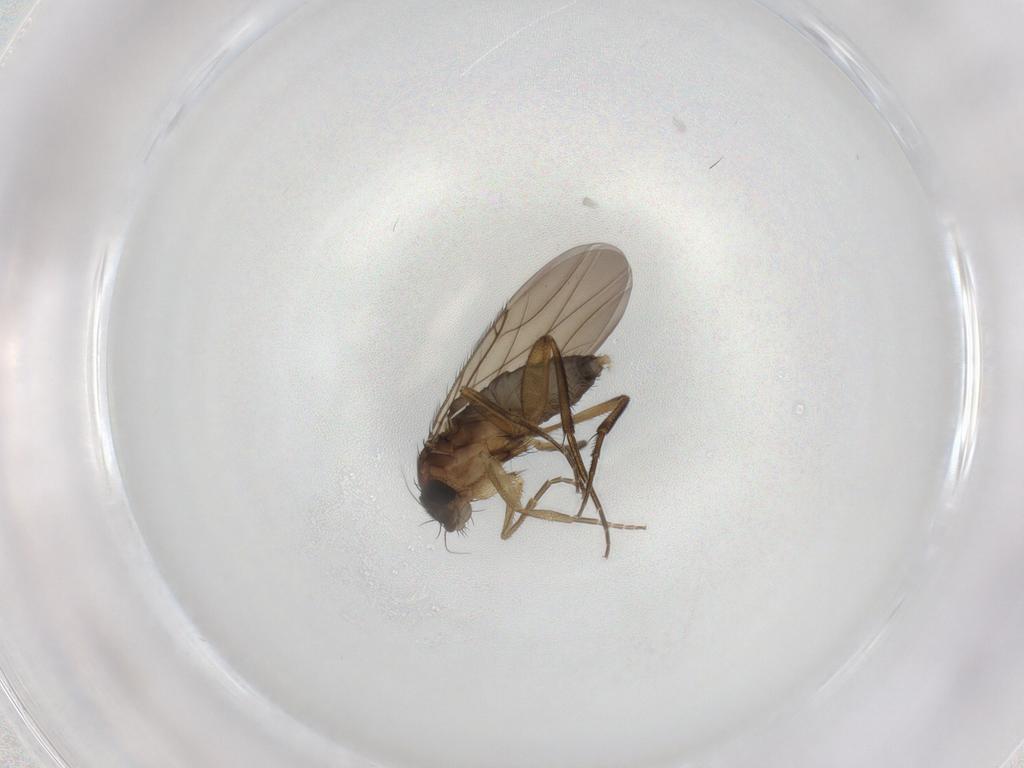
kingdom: Animalia
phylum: Arthropoda
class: Insecta
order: Diptera
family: Phoridae
